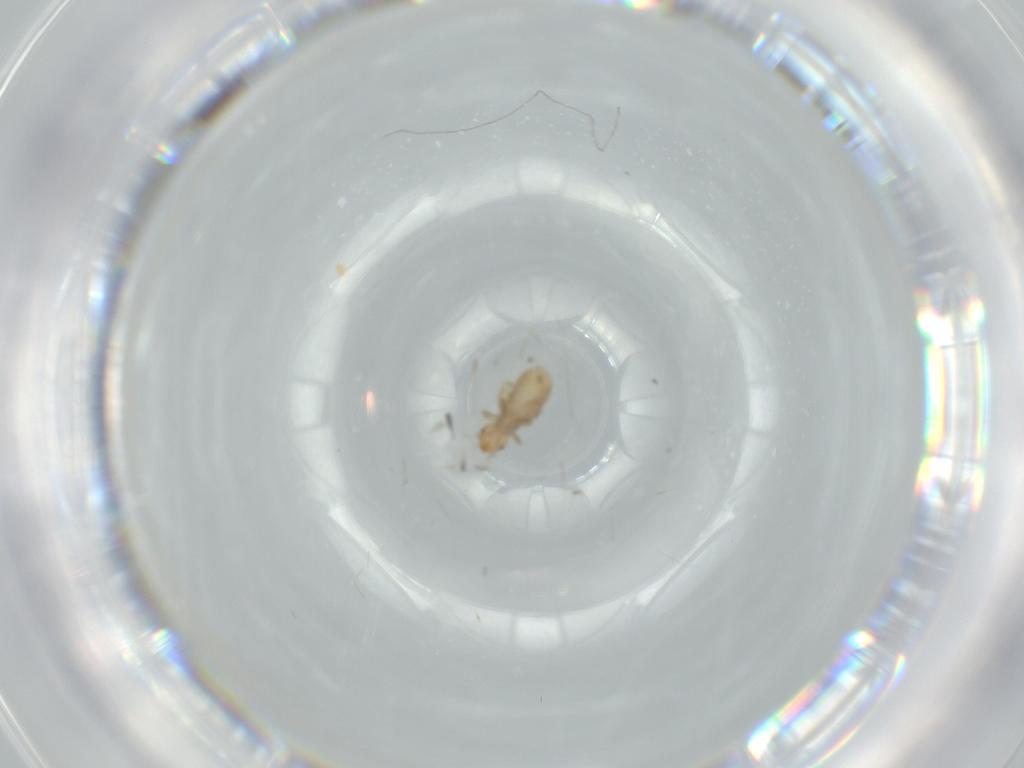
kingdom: Animalia
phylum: Arthropoda
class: Insecta
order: Psocodea
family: Liposcelididae
